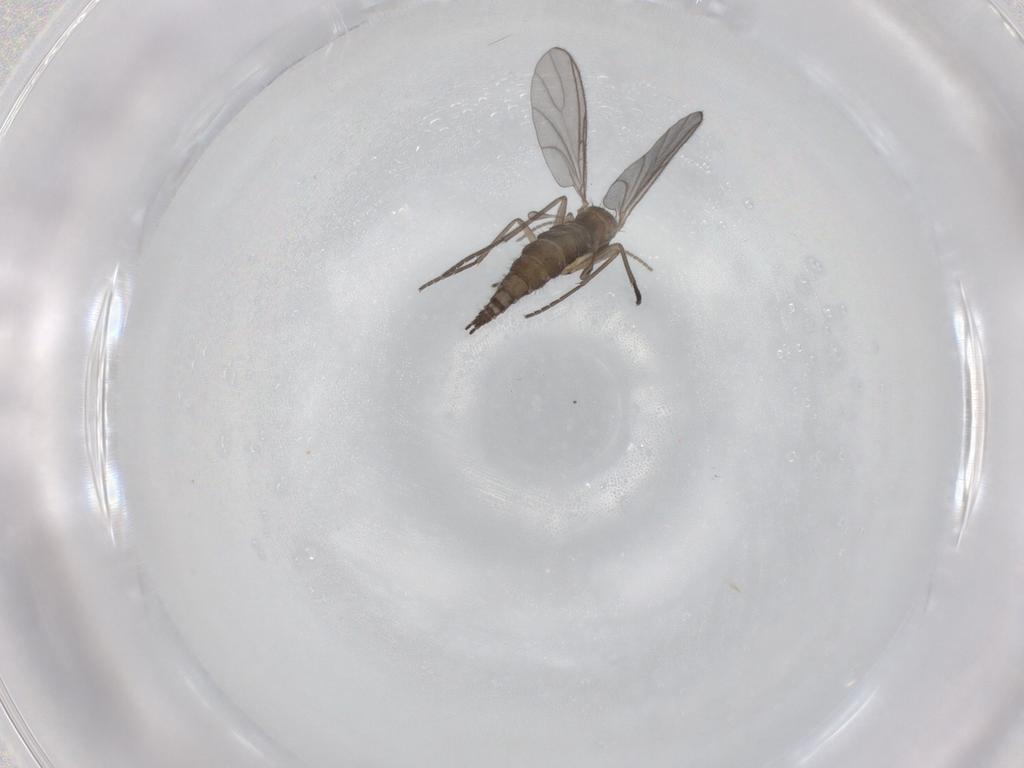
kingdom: Animalia
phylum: Arthropoda
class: Insecta
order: Diptera
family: Sciaridae
